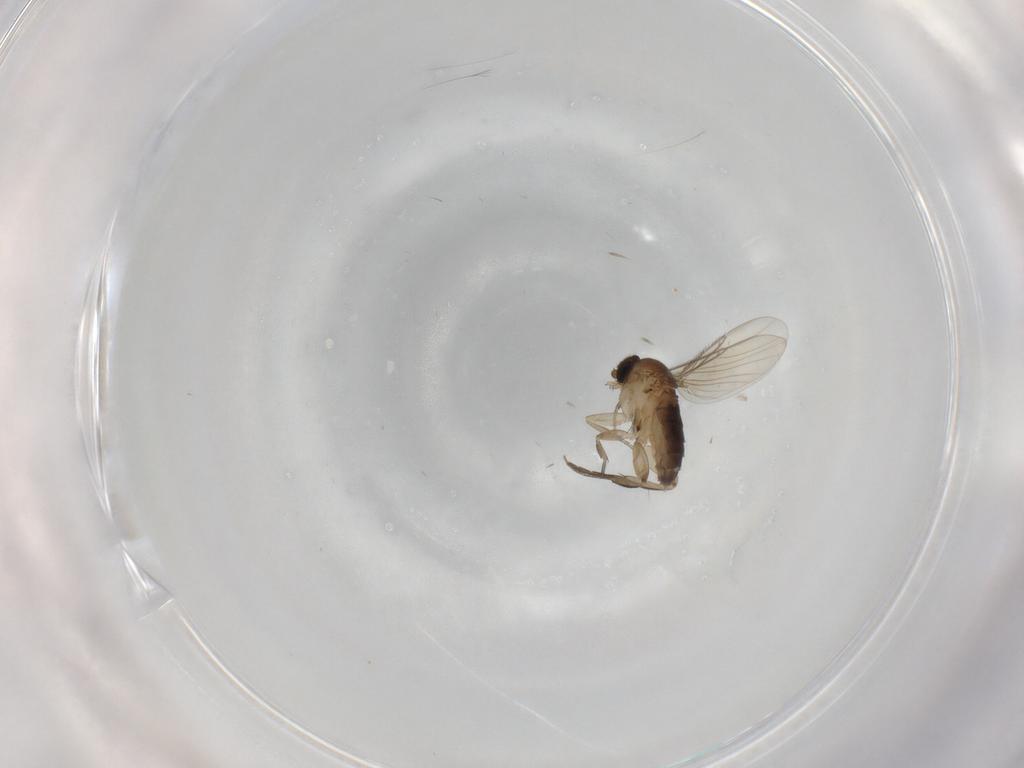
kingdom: Animalia
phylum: Arthropoda
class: Insecta
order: Diptera
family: Phoridae
